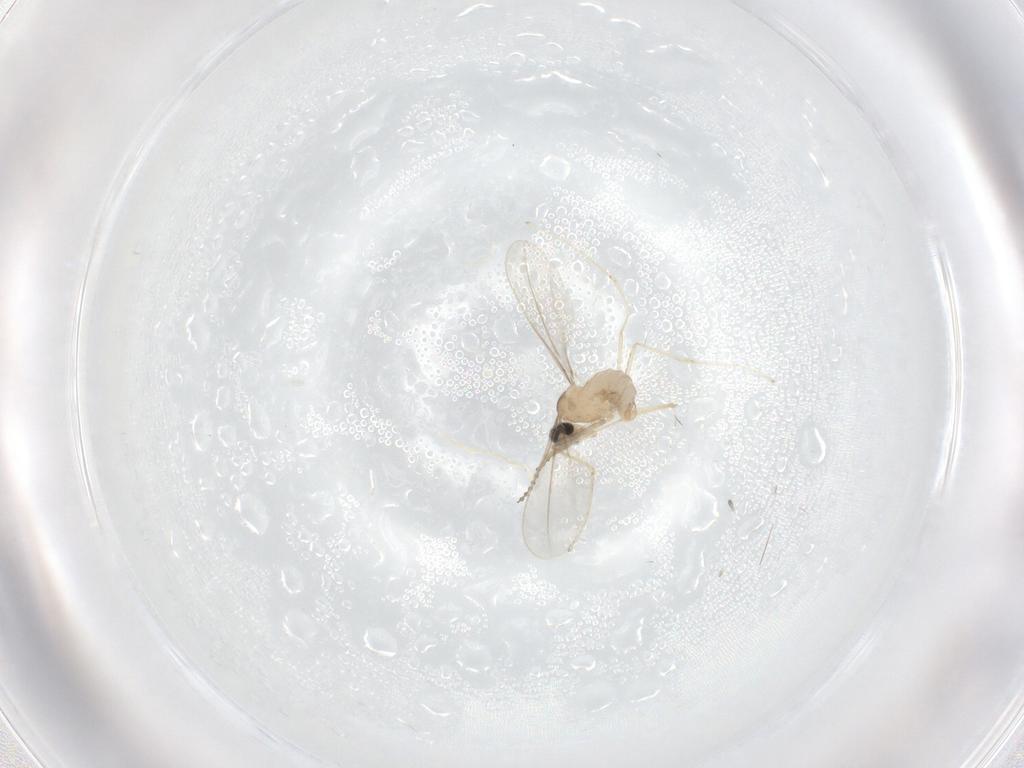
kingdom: Animalia
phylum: Arthropoda
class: Insecta
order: Diptera
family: Cecidomyiidae
